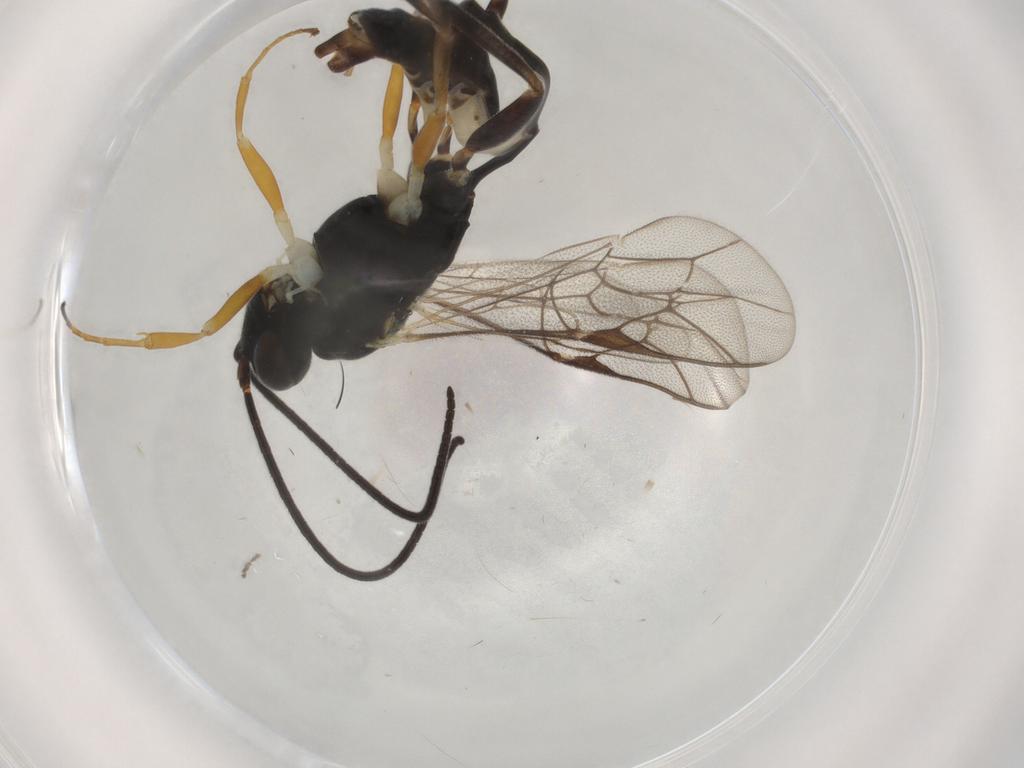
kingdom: Animalia
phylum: Arthropoda
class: Insecta
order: Hymenoptera
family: Ichneumonidae
